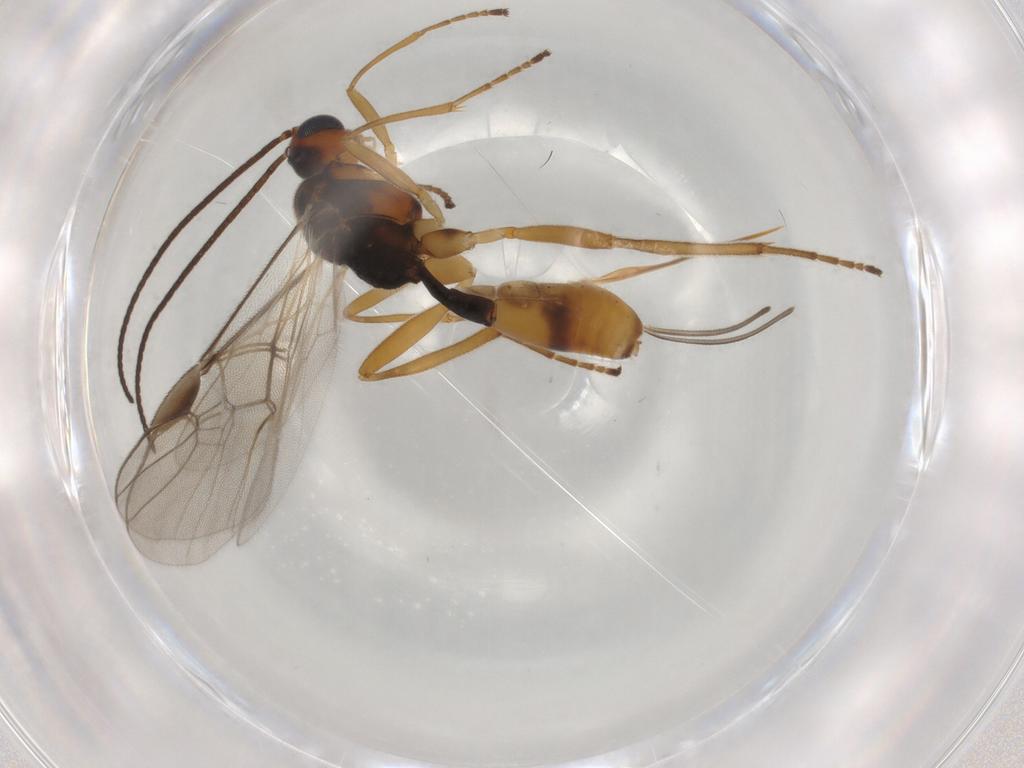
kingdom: Animalia
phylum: Arthropoda
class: Insecta
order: Hymenoptera
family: Braconidae
